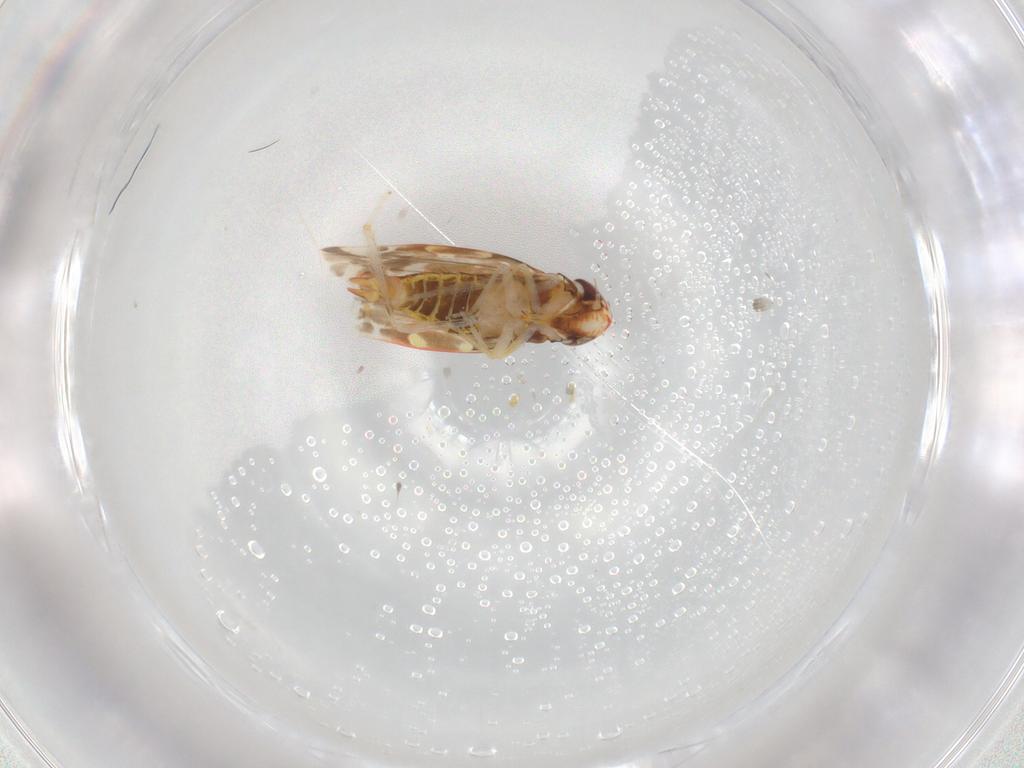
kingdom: Animalia
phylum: Arthropoda
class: Insecta
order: Hemiptera
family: Cicadellidae
